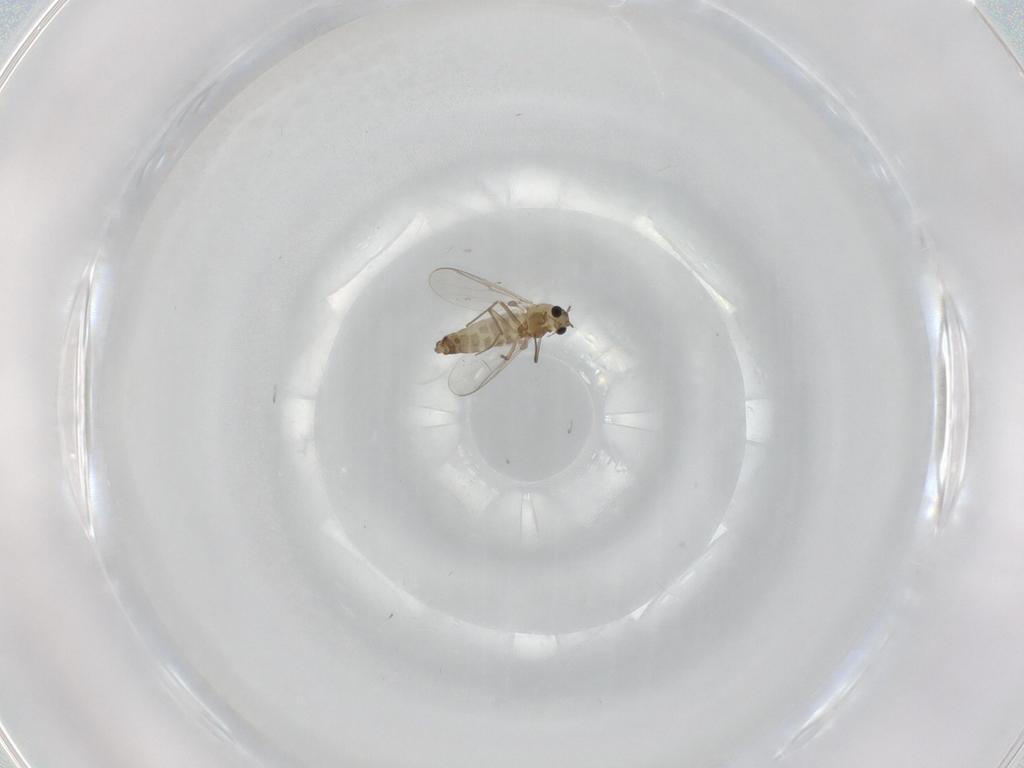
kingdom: Animalia
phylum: Arthropoda
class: Insecta
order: Diptera
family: Chironomidae
